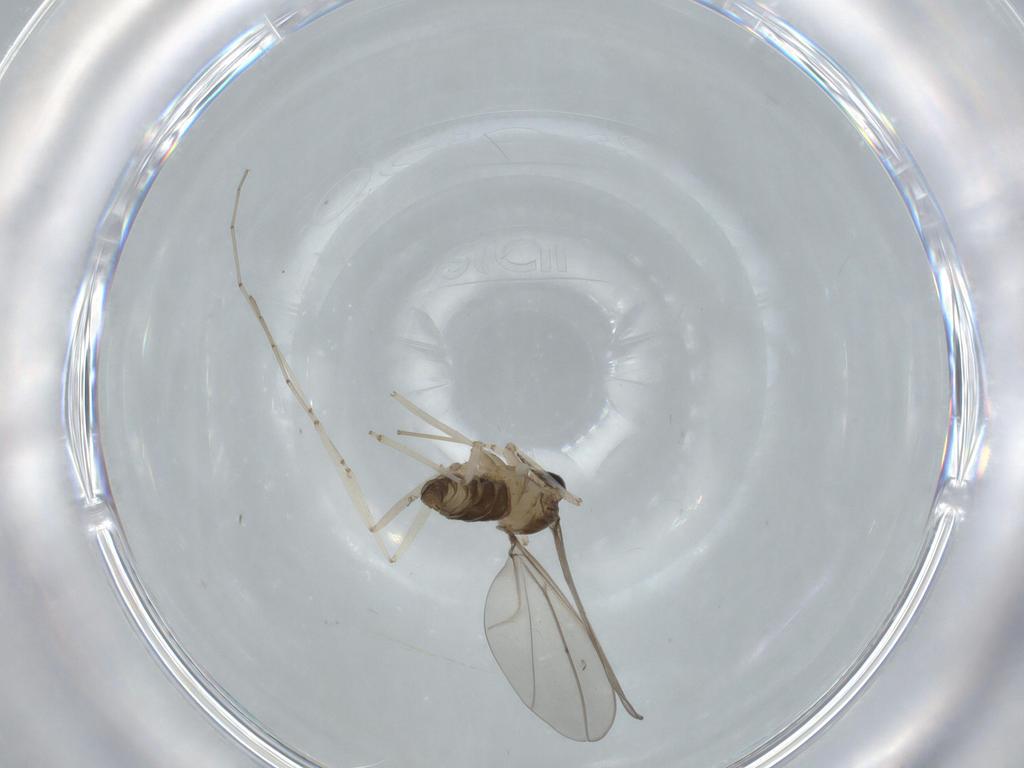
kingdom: Animalia
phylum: Arthropoda
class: Insecta
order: Diptera
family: Cecidomyiidae
